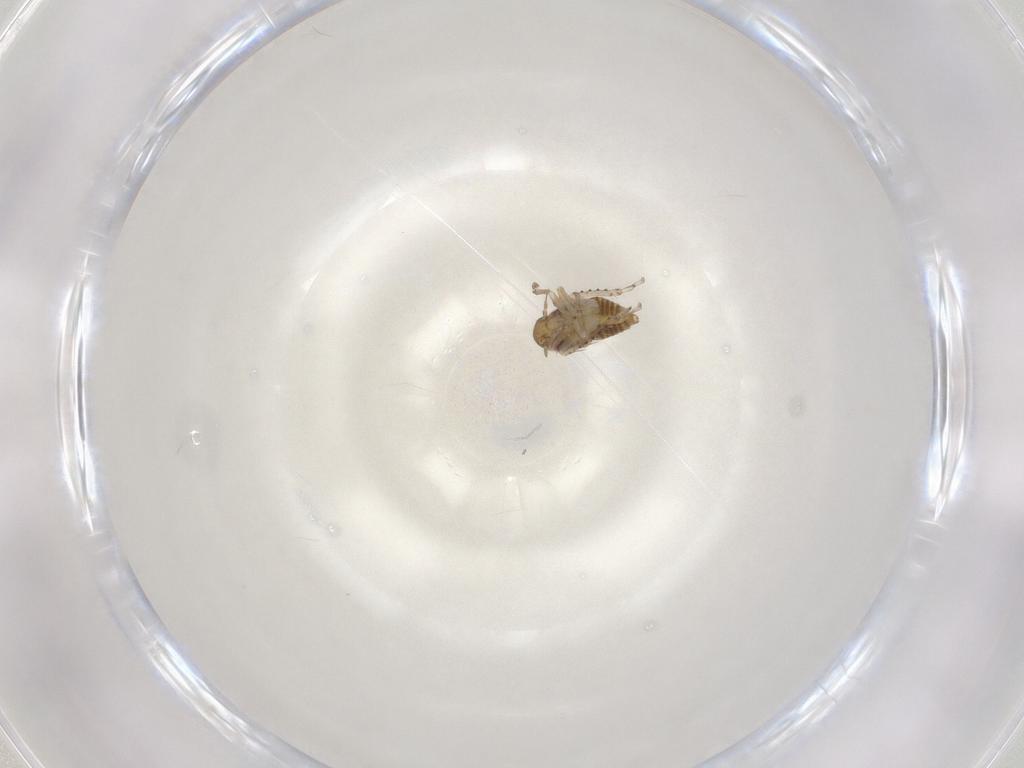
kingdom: Animalia
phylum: Arthropoda
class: Insecta
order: Hemiptera
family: Cicadellidae
